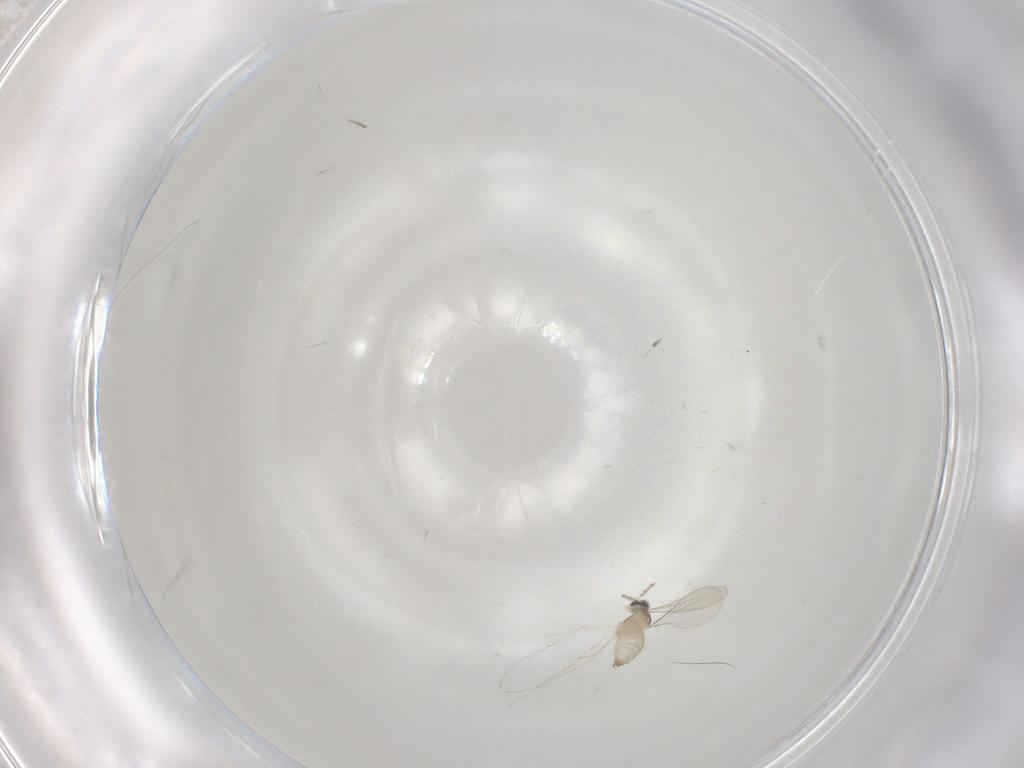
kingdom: Animalia
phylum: Arthropoda
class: Insecta
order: Diptera
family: Cecidomyiidae
